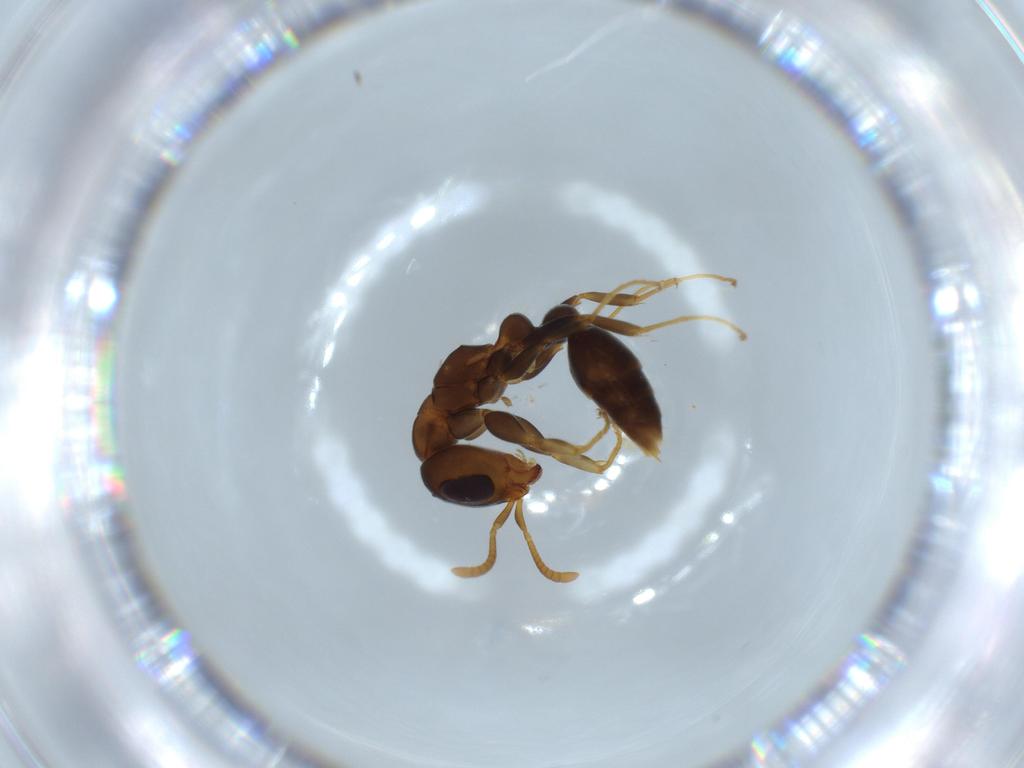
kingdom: Animalia
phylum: Arthropoda
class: Insecta
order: Hymenoptera
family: Formicidae
